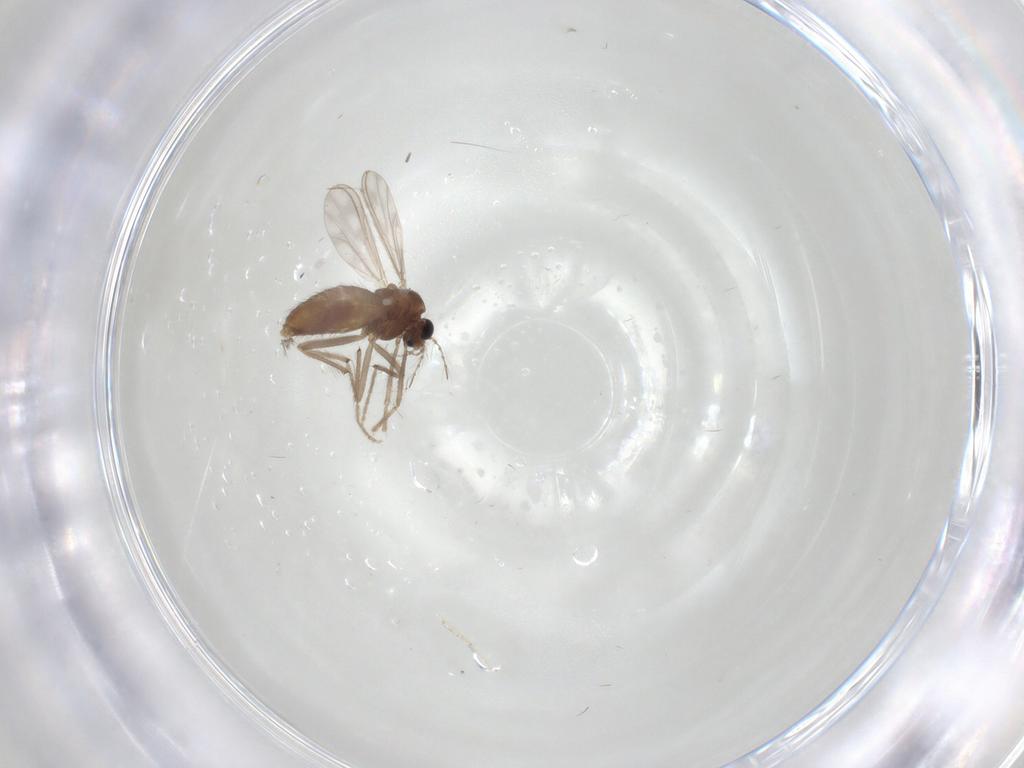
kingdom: Animalia
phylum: Arthropoda
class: Insecta
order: Diptera
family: Chironomidae
